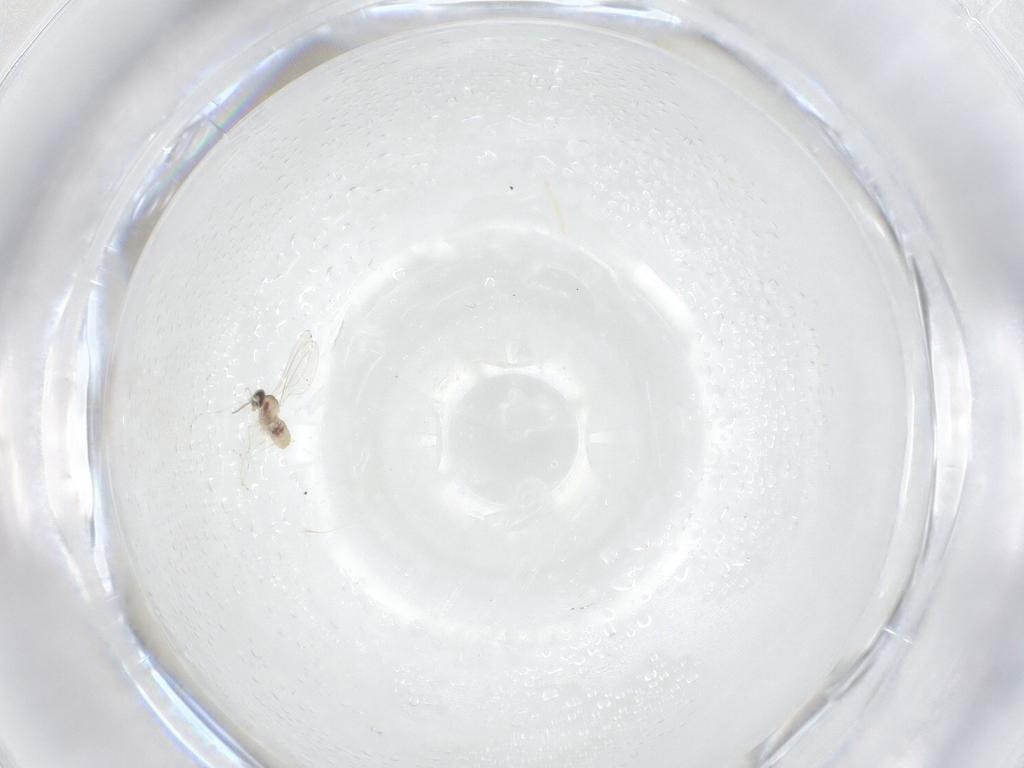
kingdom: Animalia
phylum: Arthropoda
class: Insecta
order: Diptera
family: Cecidomyiidae
